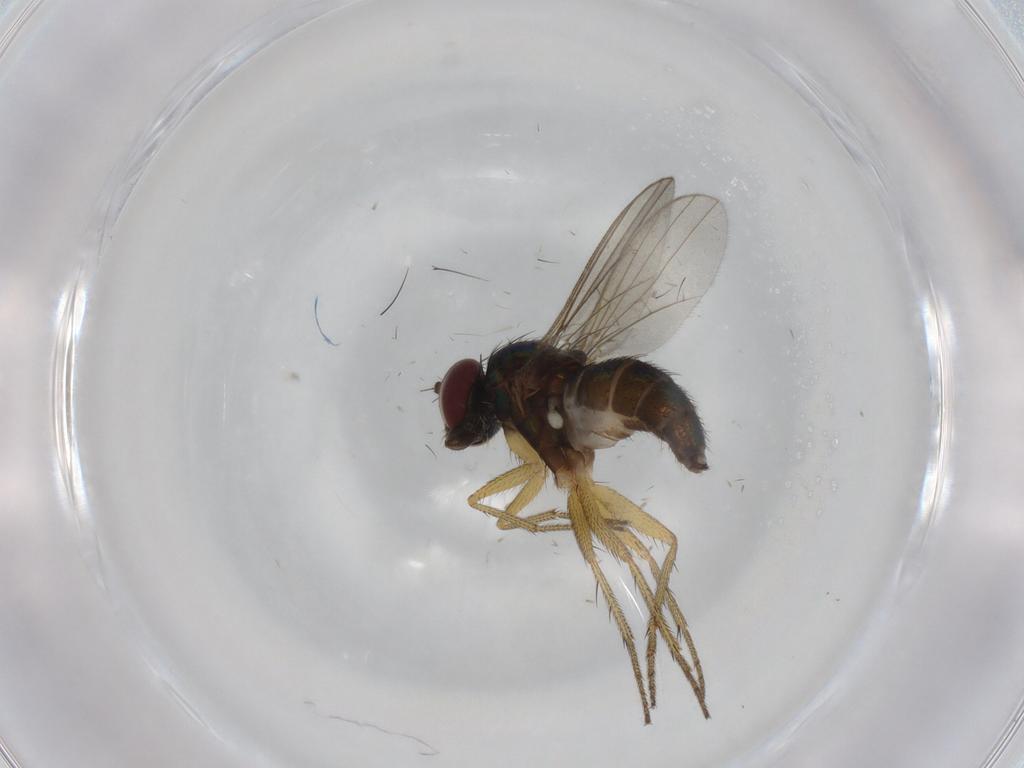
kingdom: Animalia
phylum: Arthropoda
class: Insecta
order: Diptera
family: Dolichopodidae
